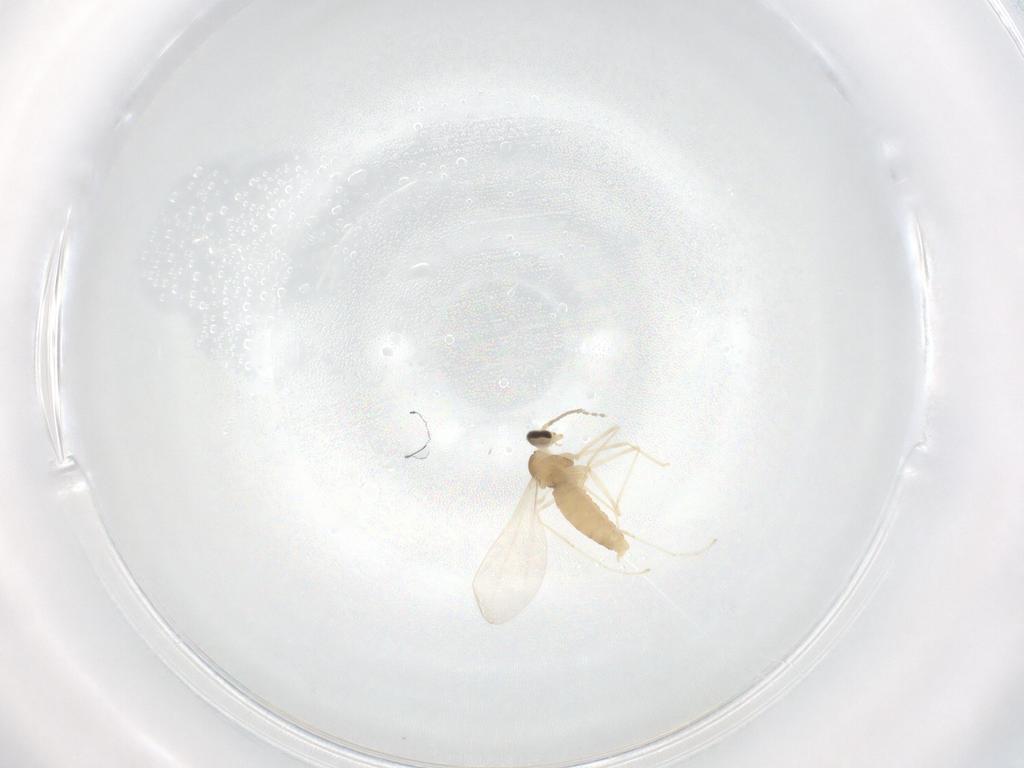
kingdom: Animalia
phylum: Arthropoda
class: Insecta
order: Diptera
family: Cecidomyiidae
